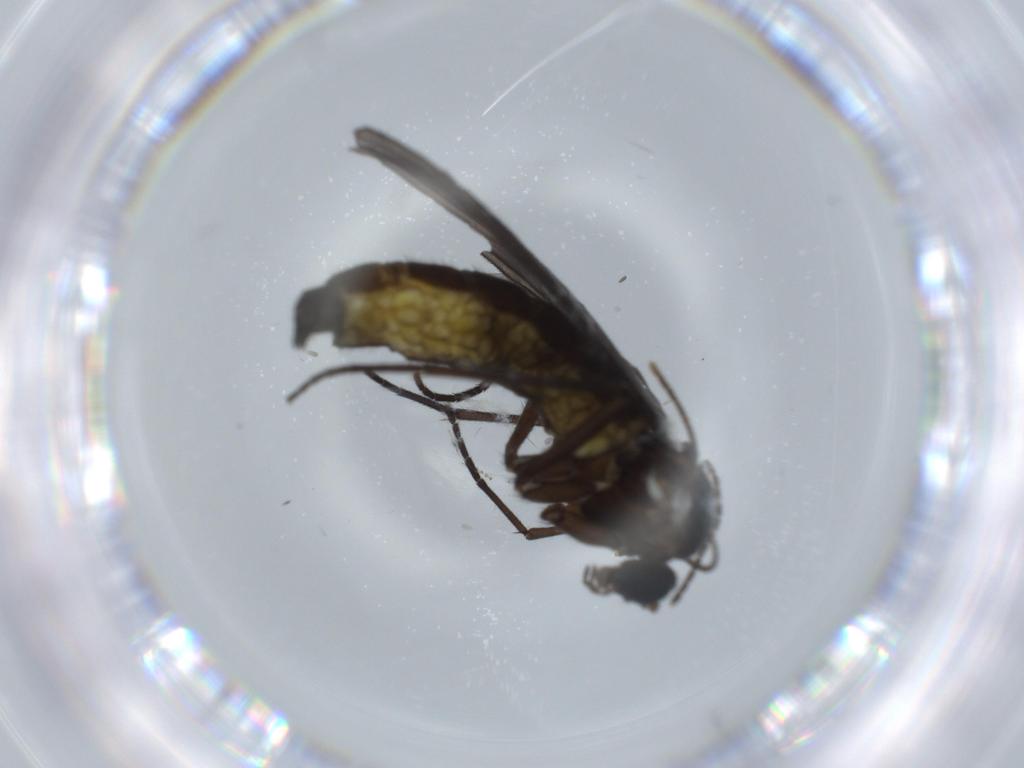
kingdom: Animalia
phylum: Arthropoda
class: Insecta
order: Diptera
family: Sciaridae
